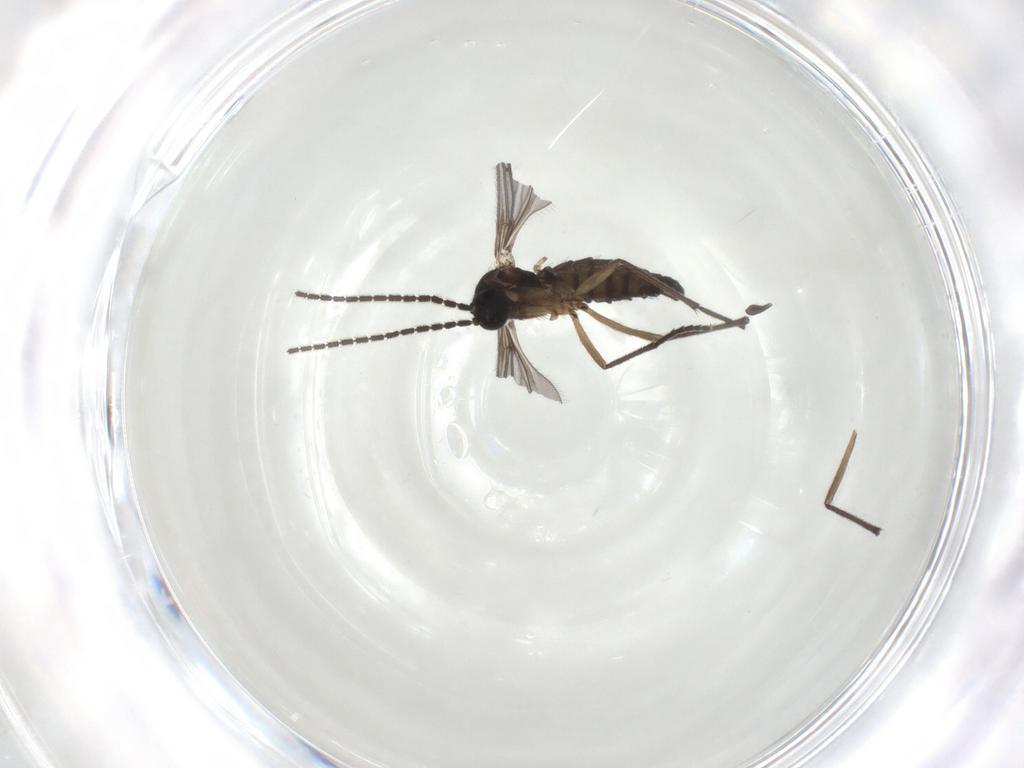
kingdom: Animalia
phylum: Arthropoda
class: Insecta
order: Diptera
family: Sciaridae
